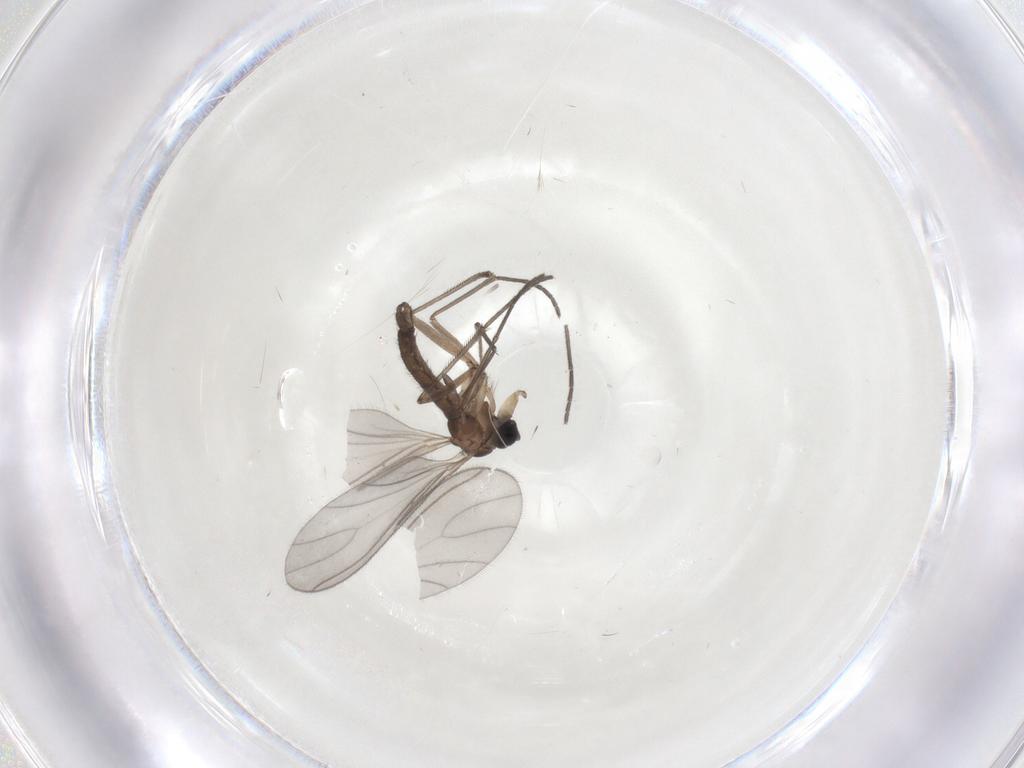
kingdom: Animalia
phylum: Arthropoda
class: Insecta
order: Diptera
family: Sciaridae
